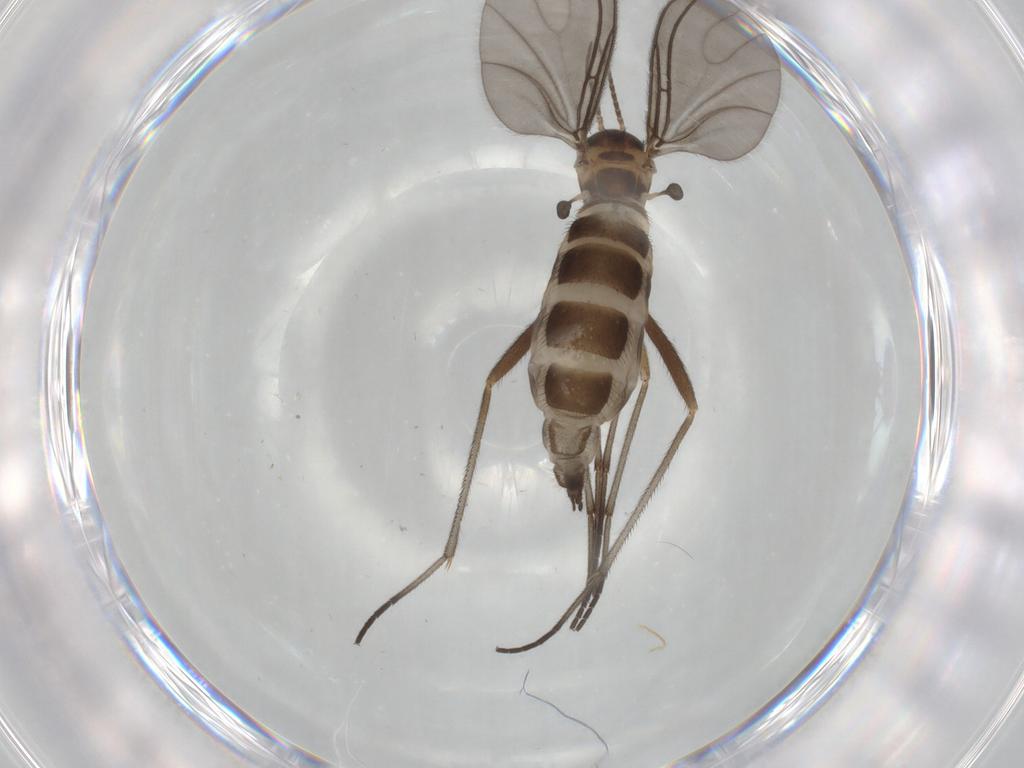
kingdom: Animalia
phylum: Arthropoda
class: Insecta
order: Diptera
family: Sciaridae
